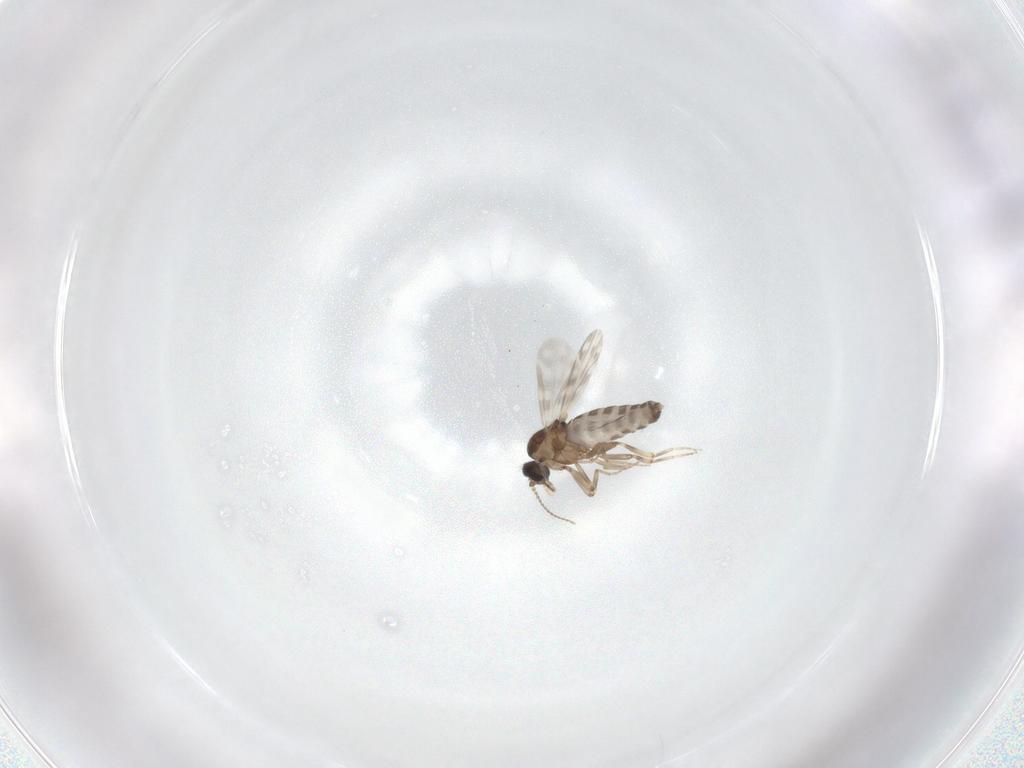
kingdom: Animalia
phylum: Arthropoda
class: Insecta
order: Diptera
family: Ceratopogonidae
